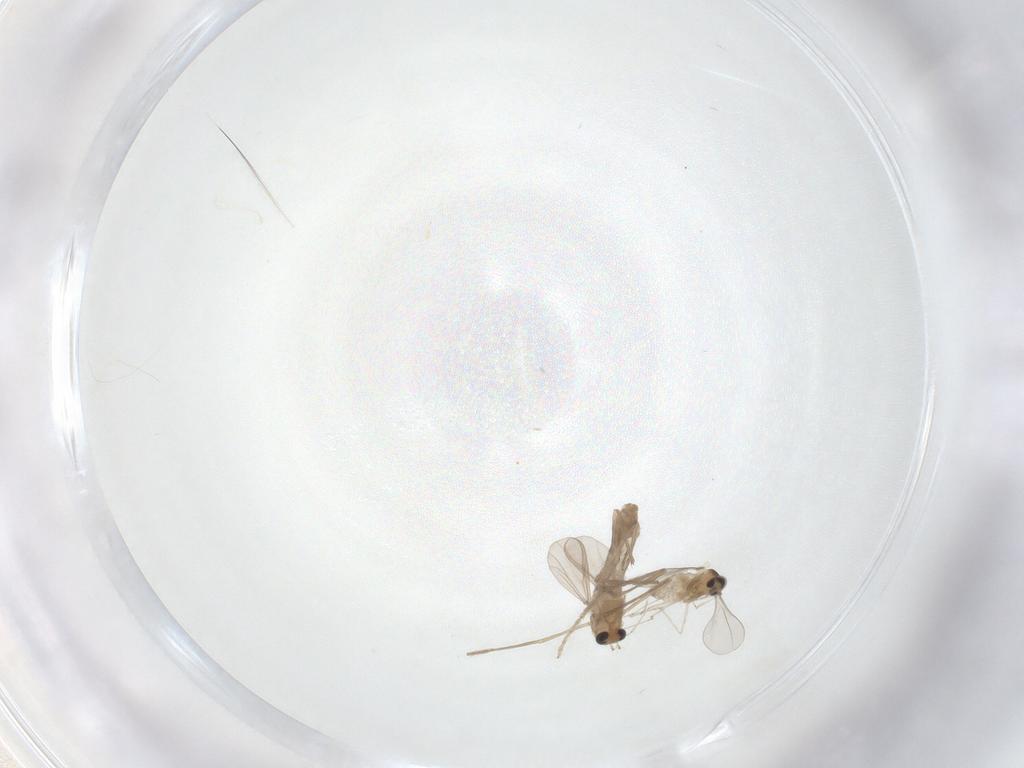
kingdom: Animalia
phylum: Arthropoda
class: Insecta
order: Diptera
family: Chironomidae
